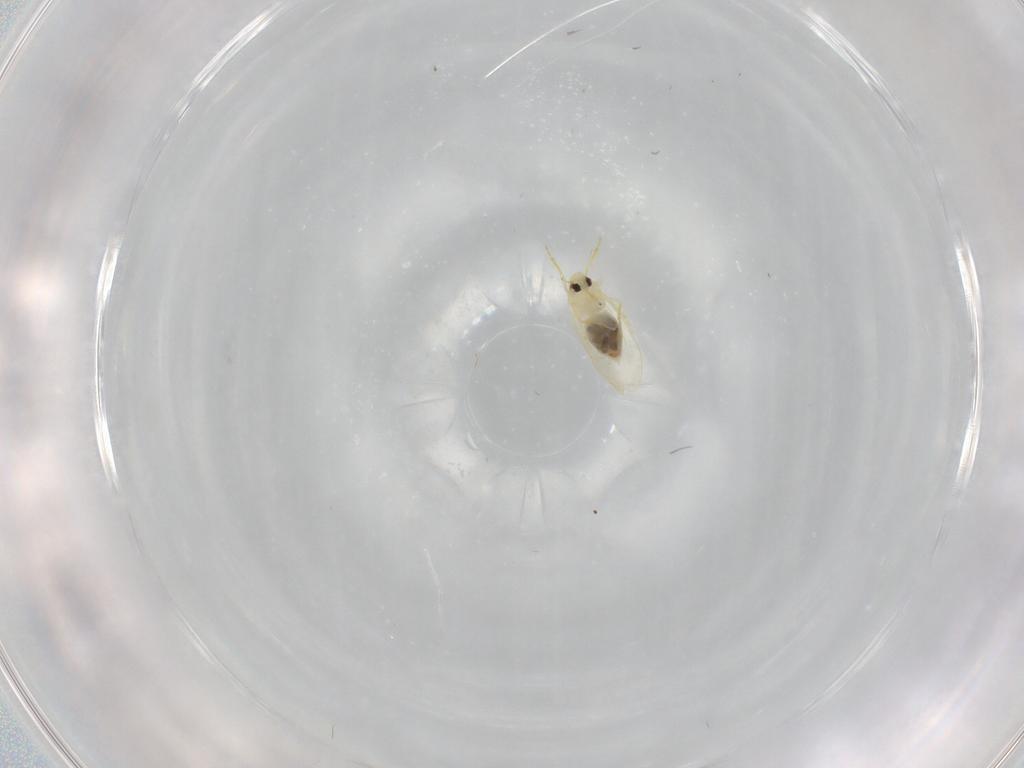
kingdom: Animalia
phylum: Arthropoda
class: Insecta
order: Hemiptera
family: Aleyrodidae
